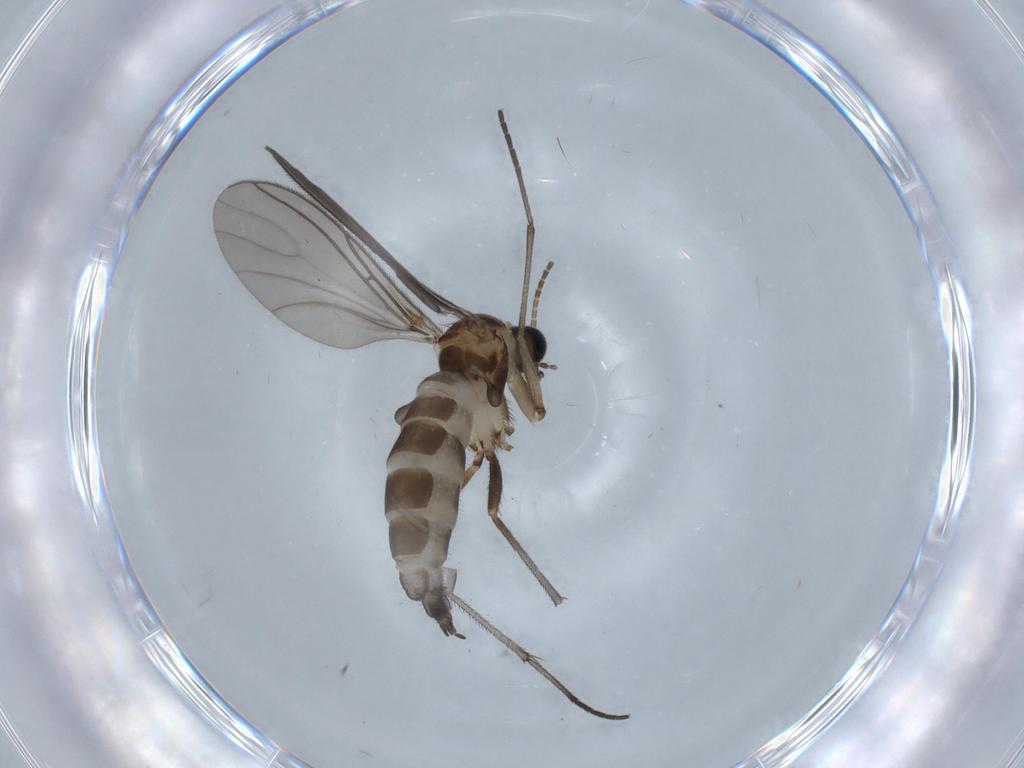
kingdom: Animalia
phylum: Arthropoda
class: Insecta
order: Diptera
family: Sciaridae
